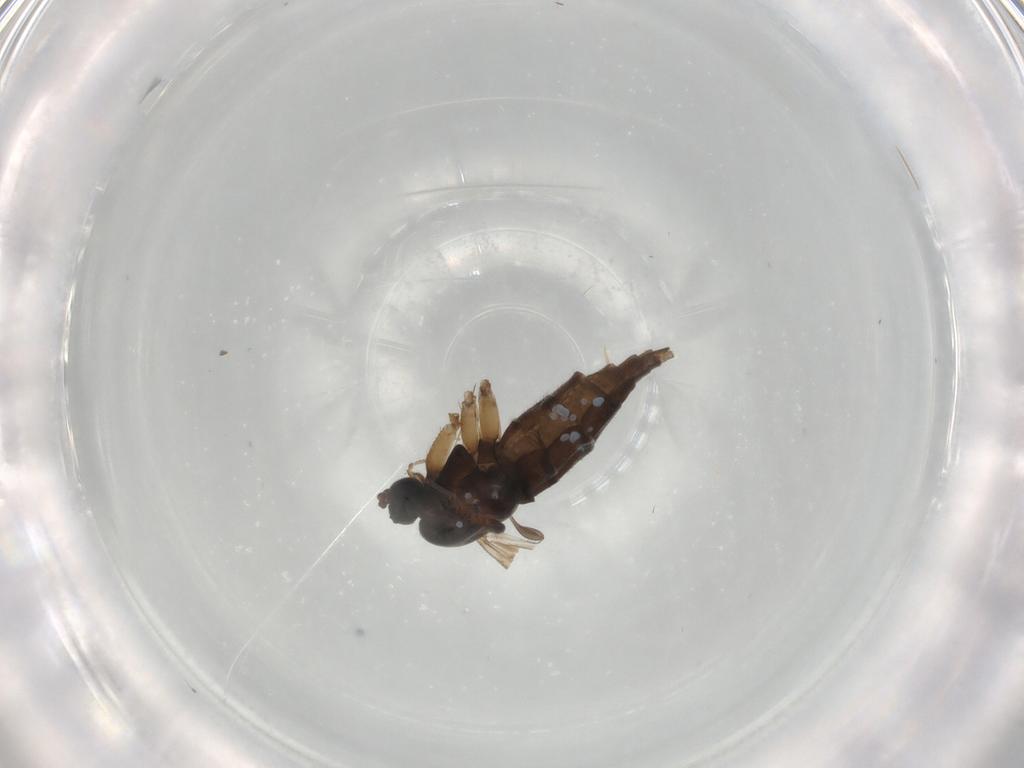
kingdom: Animalia
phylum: Arthropoda
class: Insecta
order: Diptera
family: Sciaridae
